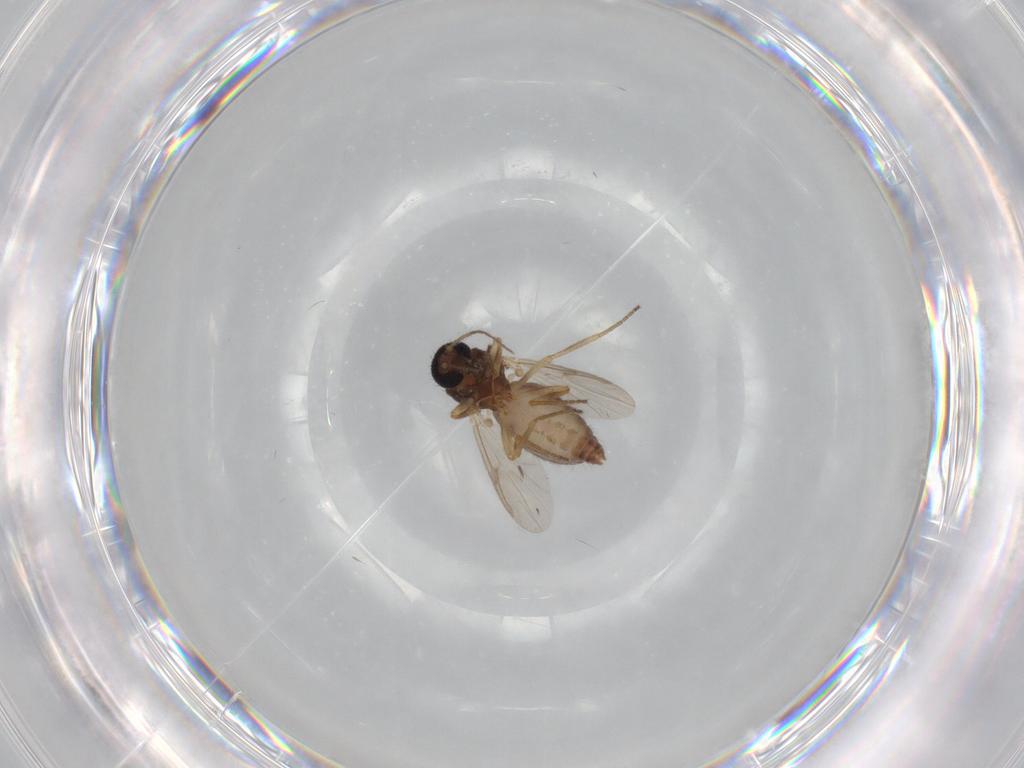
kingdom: Animalia
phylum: Arthropoda
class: Insecta
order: Diptera
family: Ceratopogonidae
